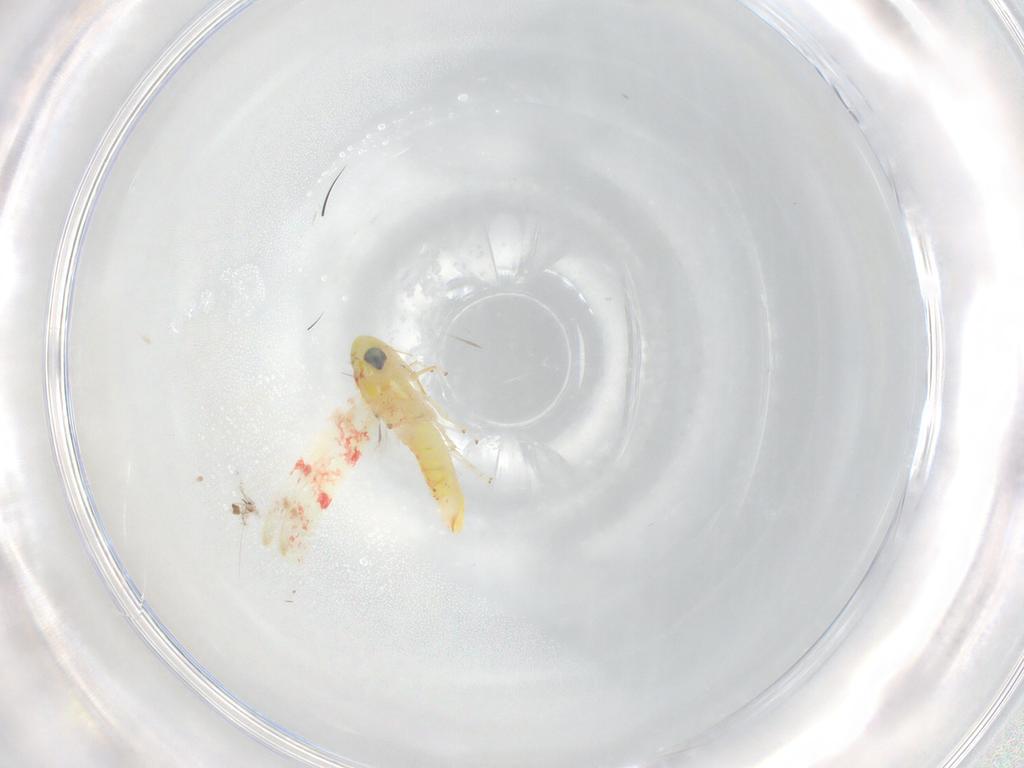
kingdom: Animalia
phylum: Arthropoda
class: Insecta
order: Hemiptera
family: Cicadellidae
